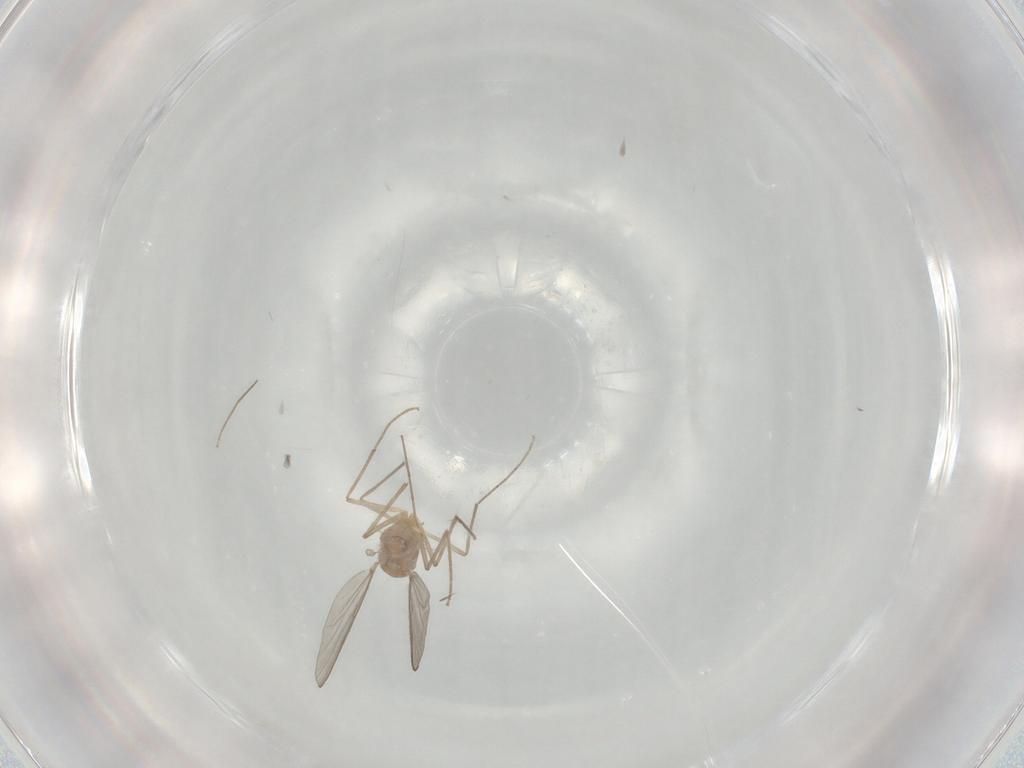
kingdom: Animalia
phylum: Arthropoda
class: Insecta
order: Diptera
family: Chironomidae
